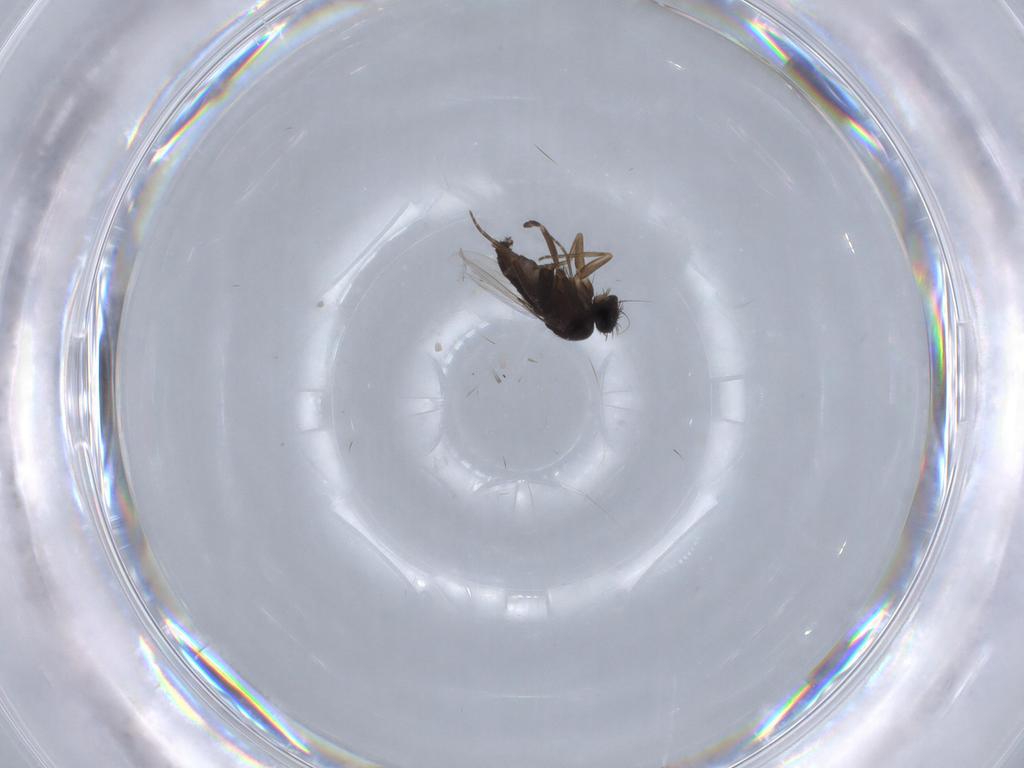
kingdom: Animalia
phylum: Arthropoda
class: Insecta
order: Diptera
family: Phoridae
